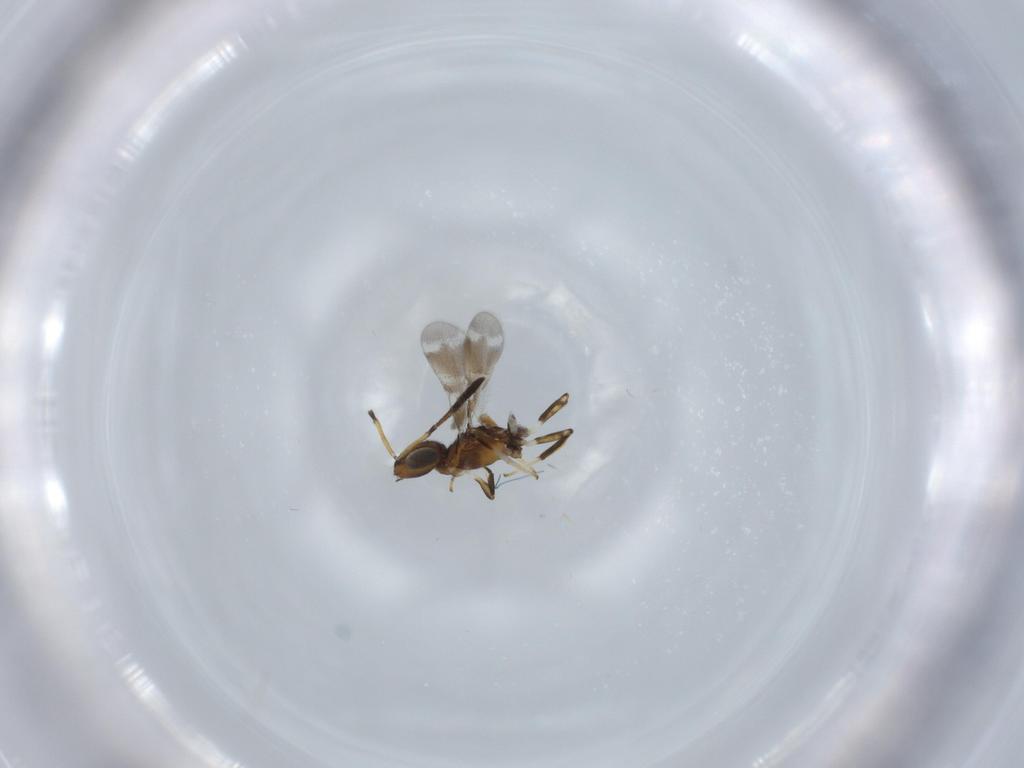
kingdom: Animalia
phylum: Arthropoda
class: Insecta
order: Hymenoptera
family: Eupelmidae
